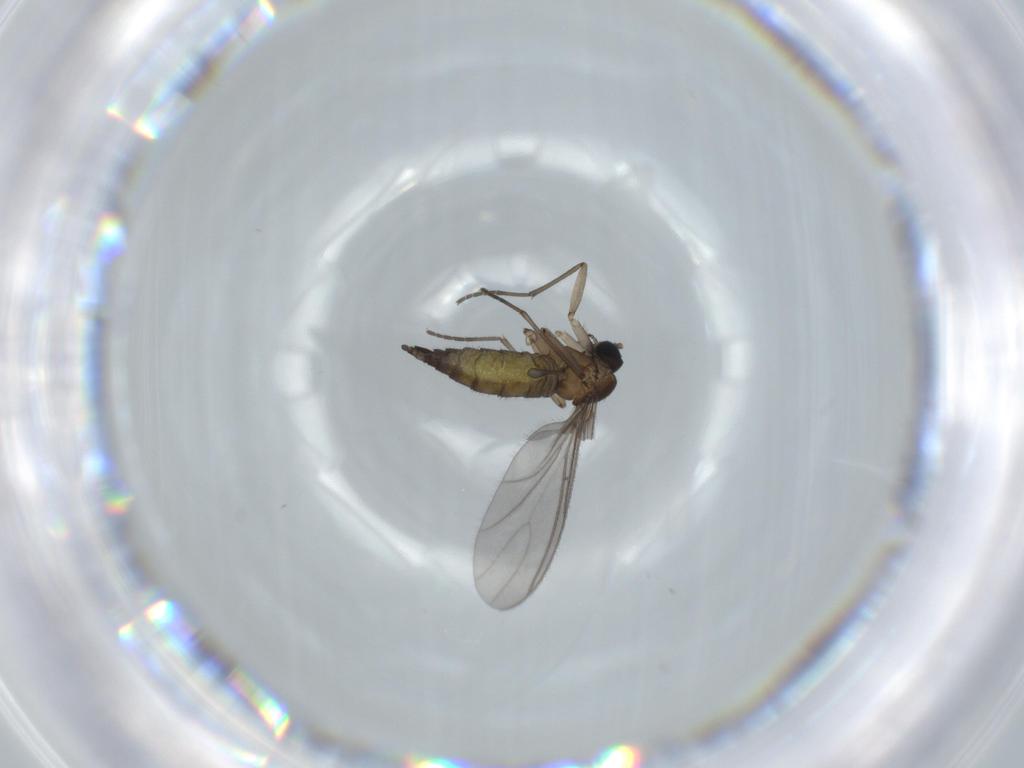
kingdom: Animalia
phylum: Arthropoda
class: Insecta
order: Diptera
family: Sciaridae
